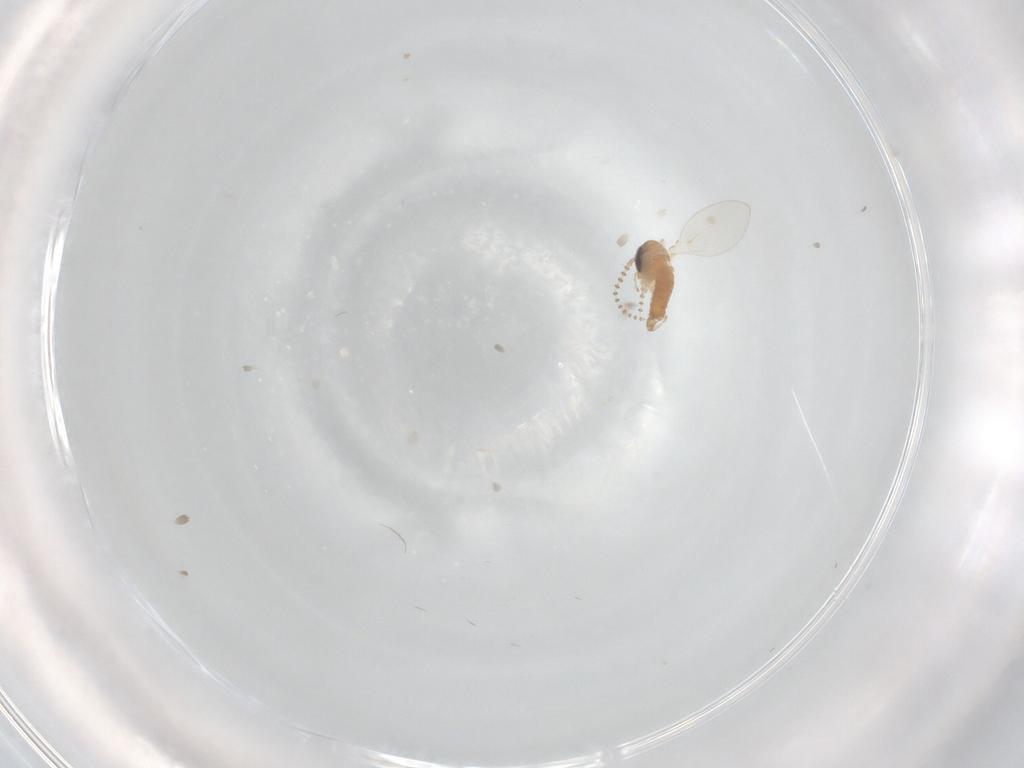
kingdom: Animalia
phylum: Arthropoda
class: Insecta
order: Diptera
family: Psychodidae
